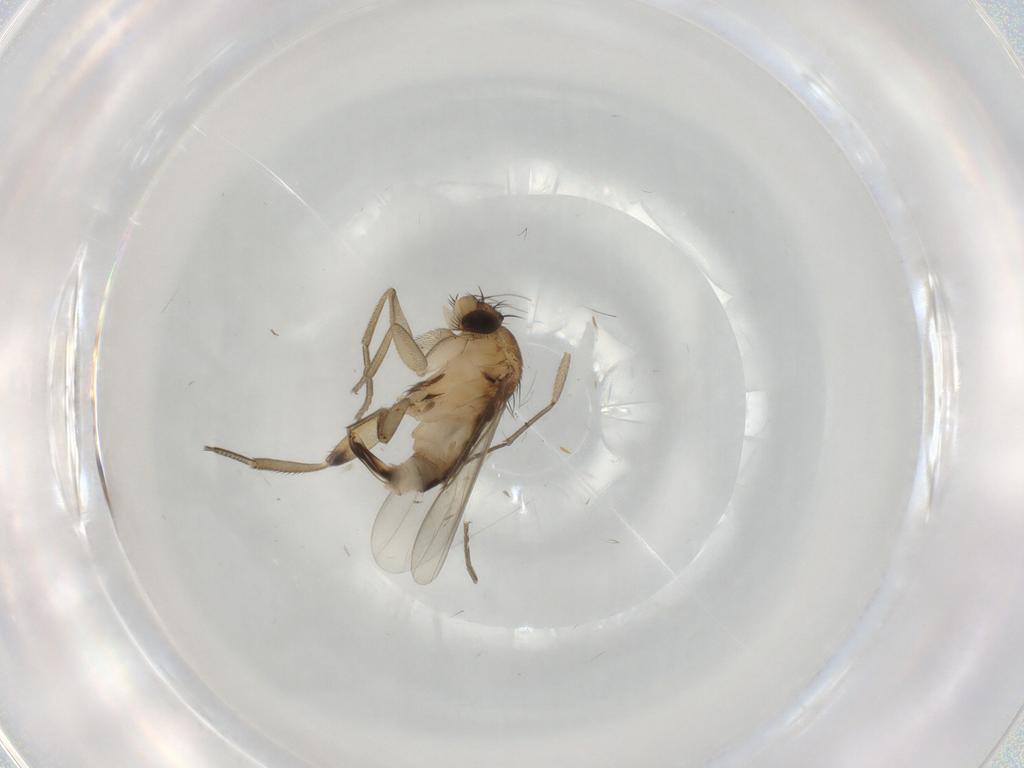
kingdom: Animalia
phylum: Arthropoda
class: Insecta
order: Diptera
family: Phoridae
